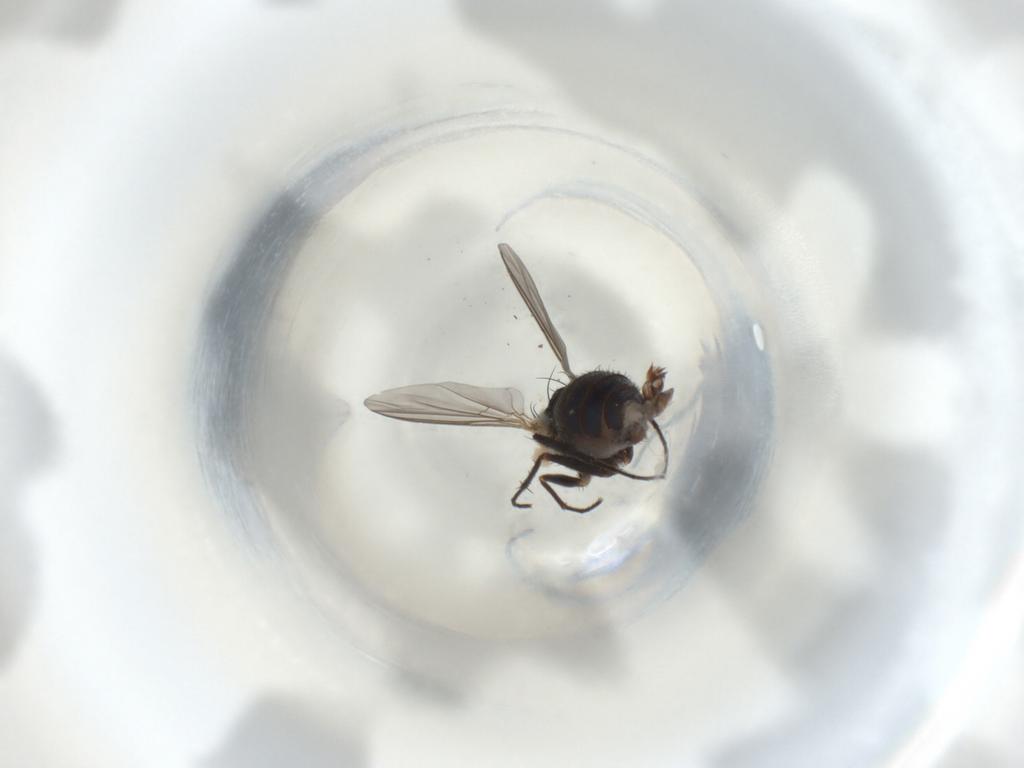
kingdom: Animalia
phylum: Arthropoda
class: Insecta
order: Diptera
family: Dolichopodidae
